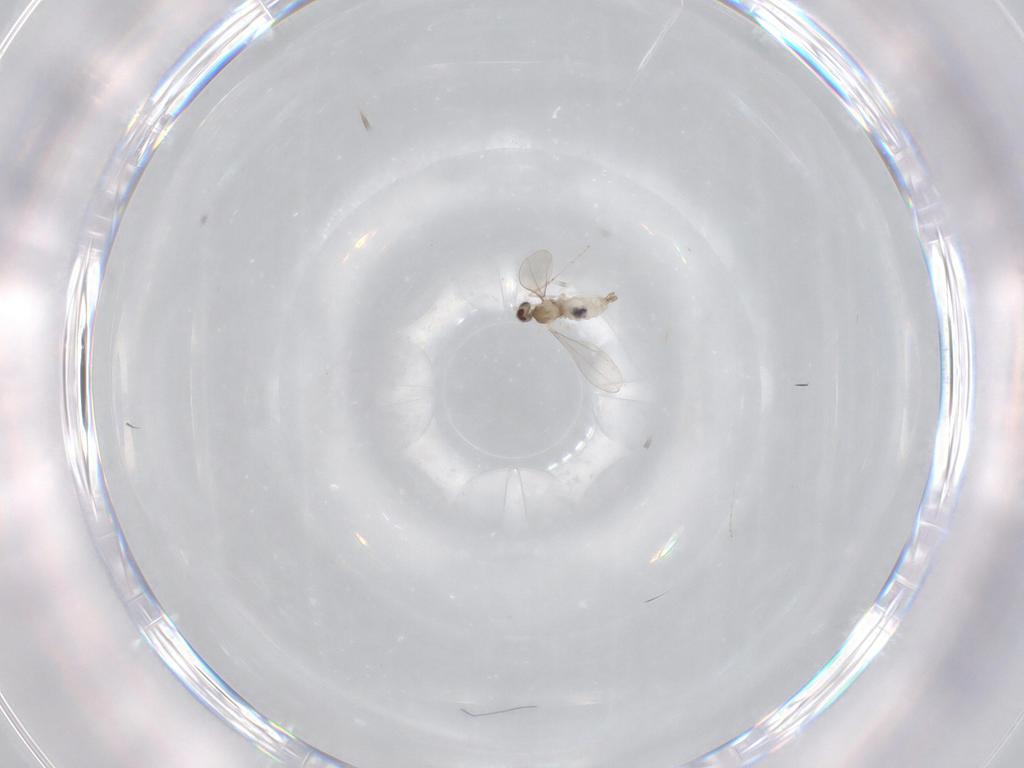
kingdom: Animalia
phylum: Arthropoda
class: Insecta
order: Diptera
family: Cecidomyiidae
